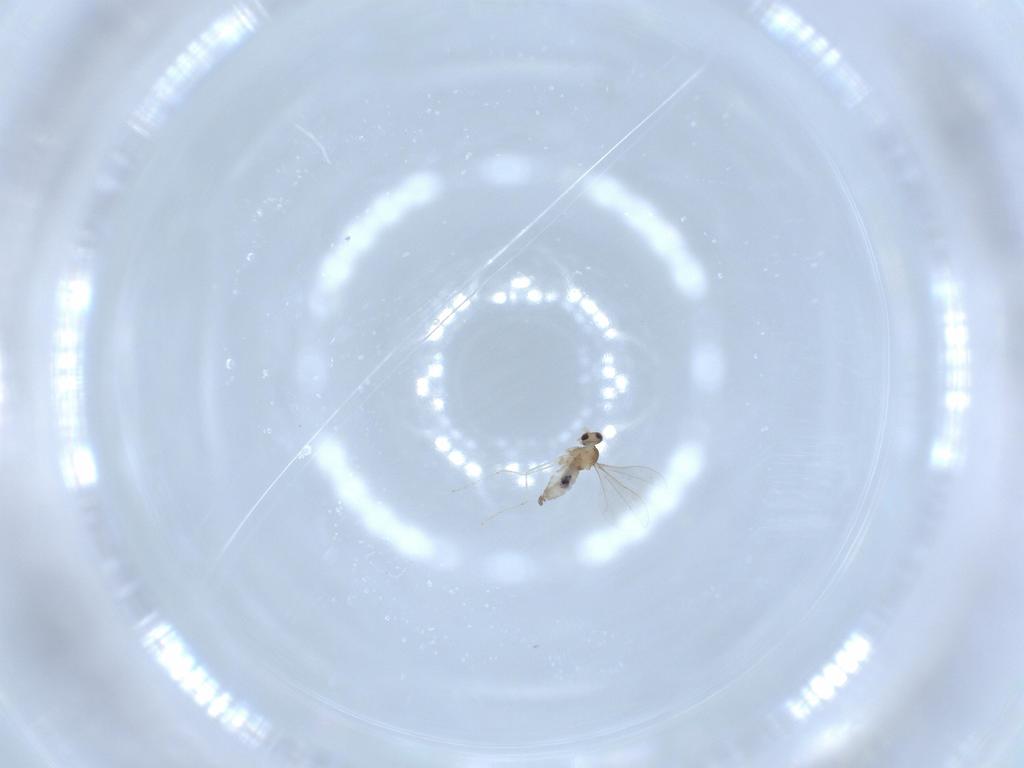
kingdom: Animalia
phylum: Arthropoda
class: Insecta
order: Diptera
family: Cecidomyiidae
